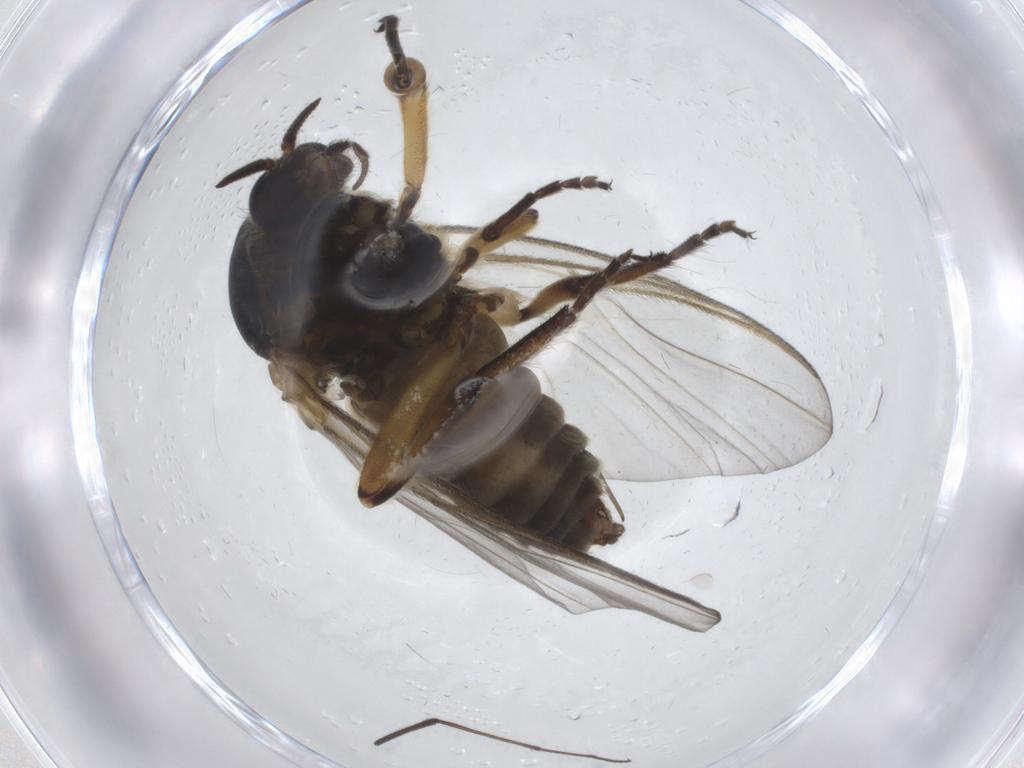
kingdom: Animalia
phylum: Arthropoda
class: Insecta
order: Diptera
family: Simuliidae
